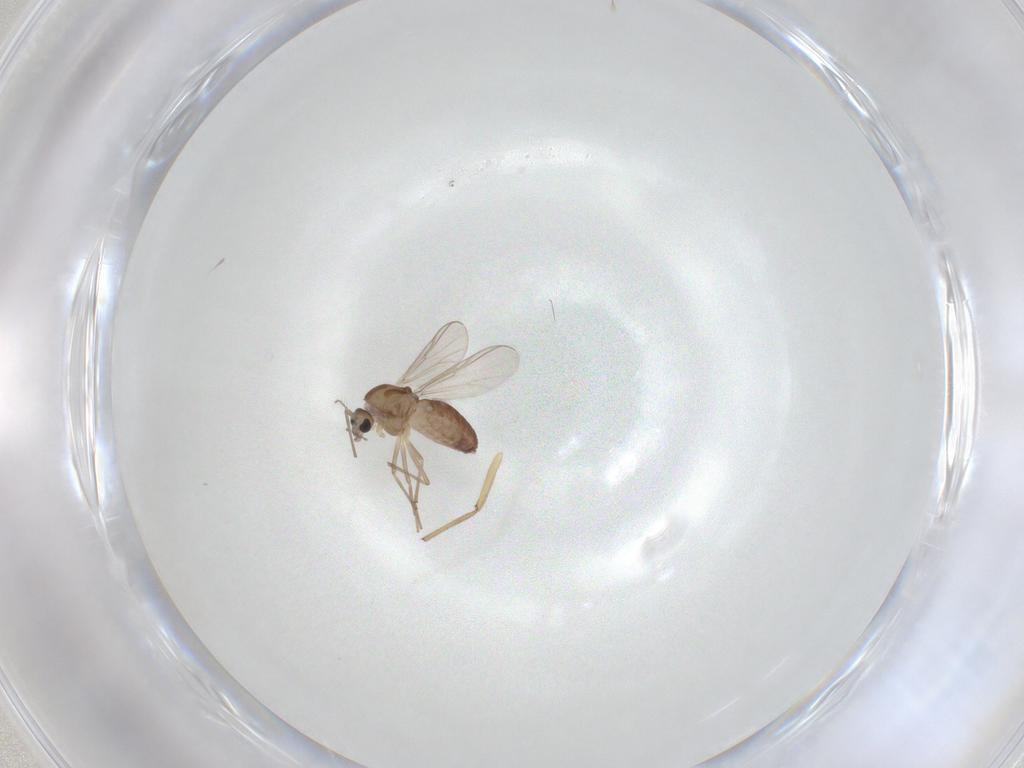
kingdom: Animalia
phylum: Arthropoda
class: Insecta
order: Diptera
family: Chironomidae
